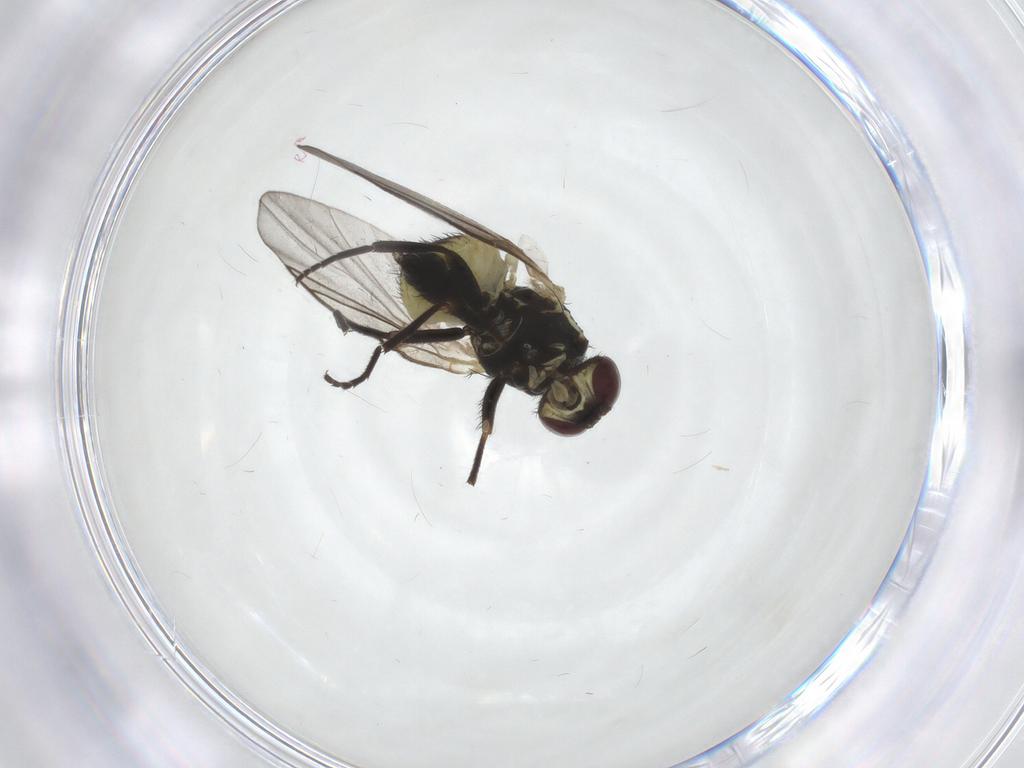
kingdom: Animalia
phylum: Arthropoda
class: Insecta
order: Diptera
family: Agromyzidae
